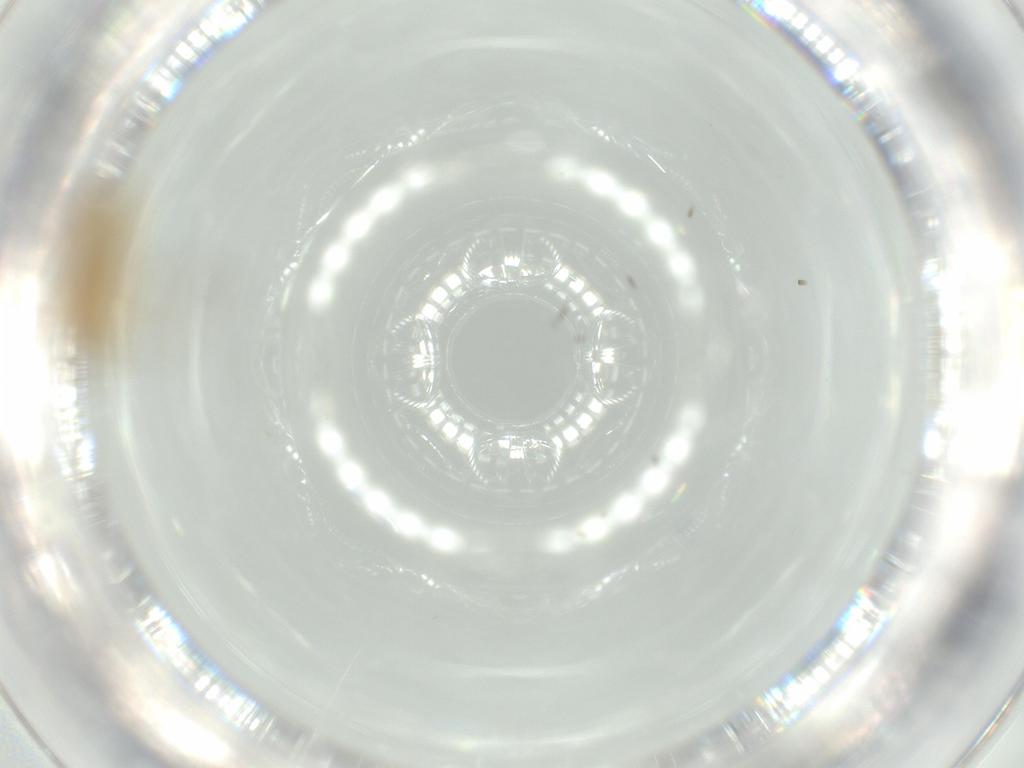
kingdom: Animalia
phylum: Arthropoda
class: Insecta
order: Diptera
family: Chironomidae
